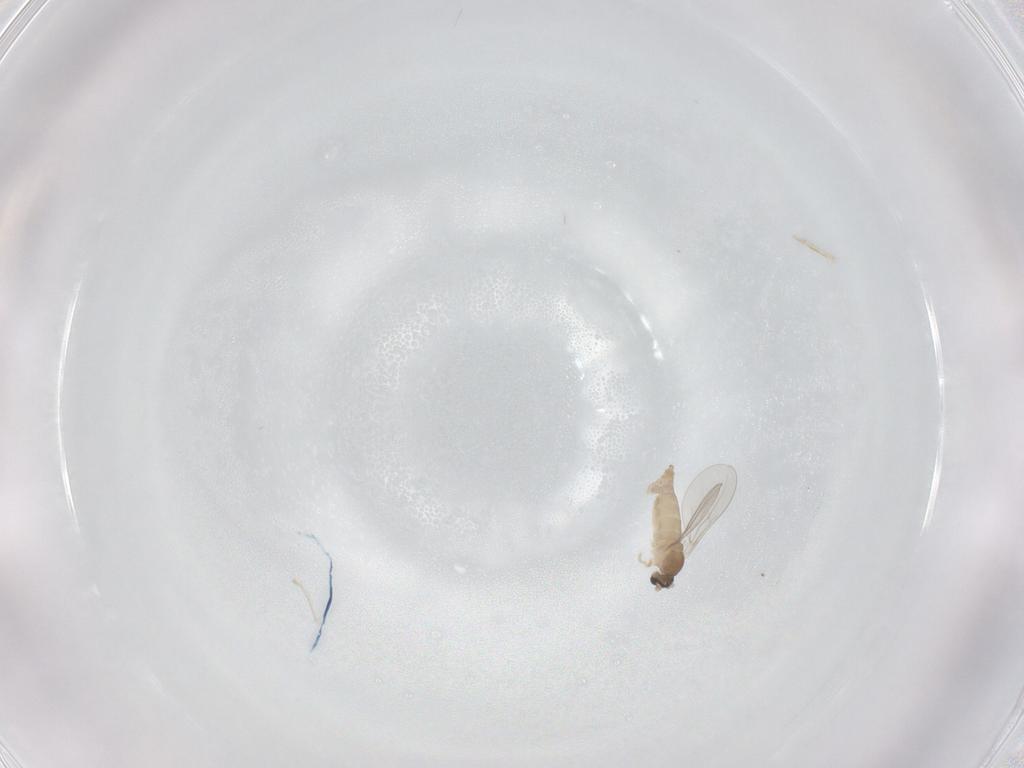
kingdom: Animalia
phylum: Arthropoda
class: Insecta
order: Diptera
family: Cecidomyiidae
